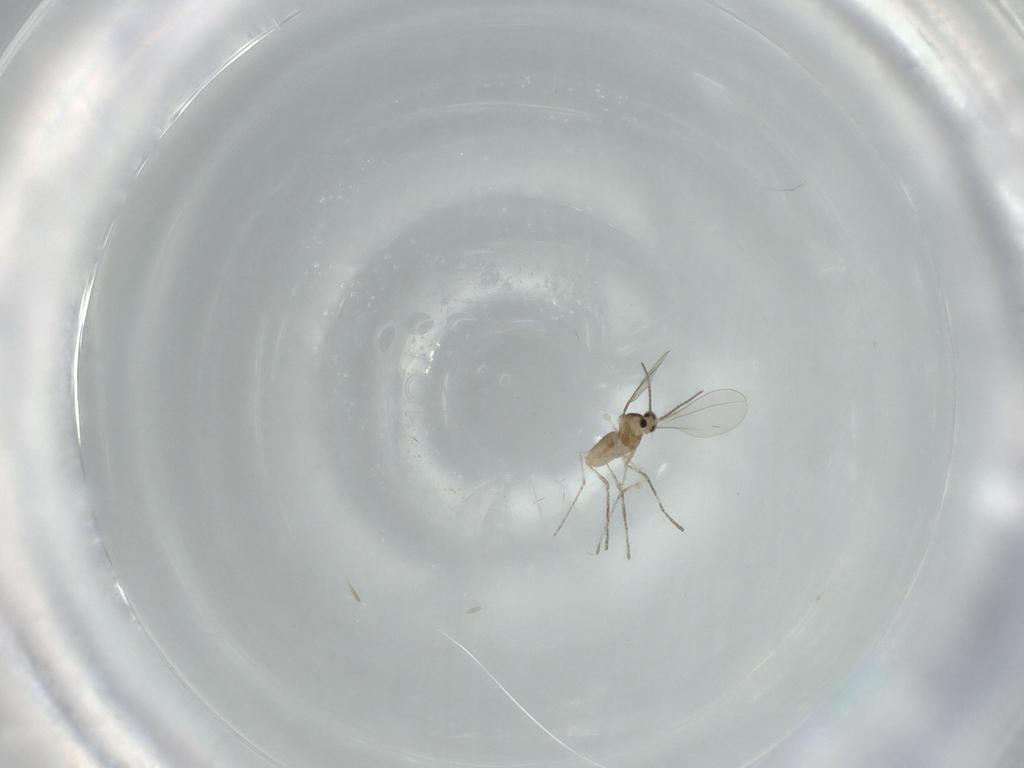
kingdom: Animalia
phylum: Arthropoda
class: Insecta
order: Diptera
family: Cecidomyiidae
